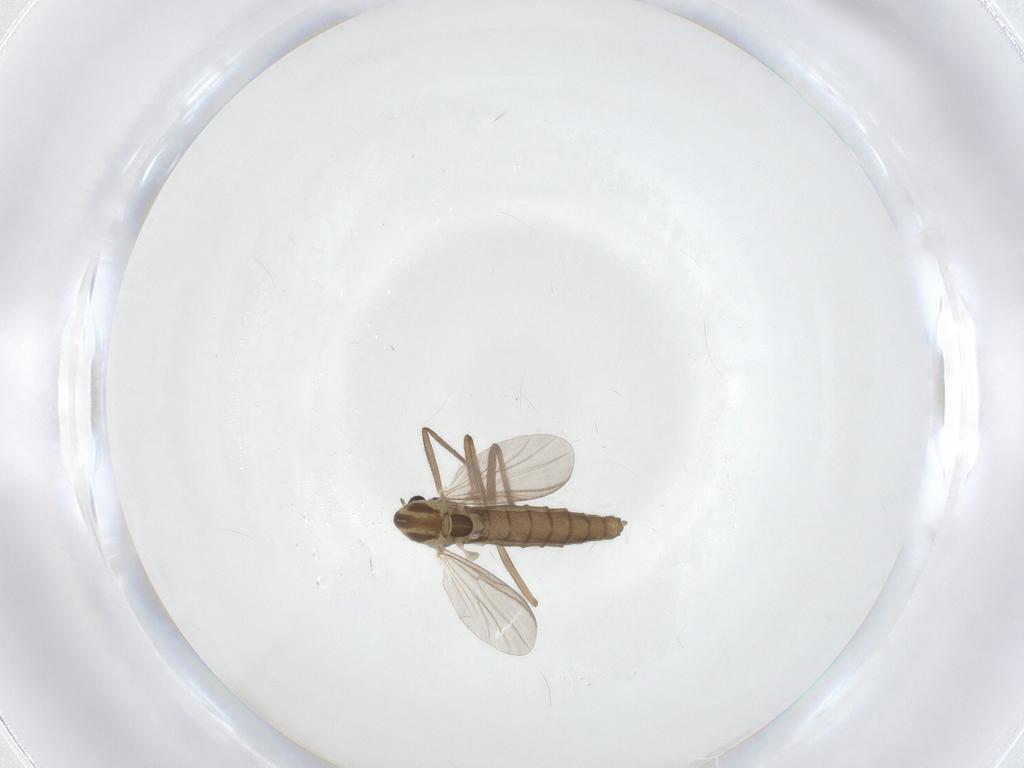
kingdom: Animalia
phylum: Arthropoda
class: Insecta
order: Diptera
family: Chironomidae
